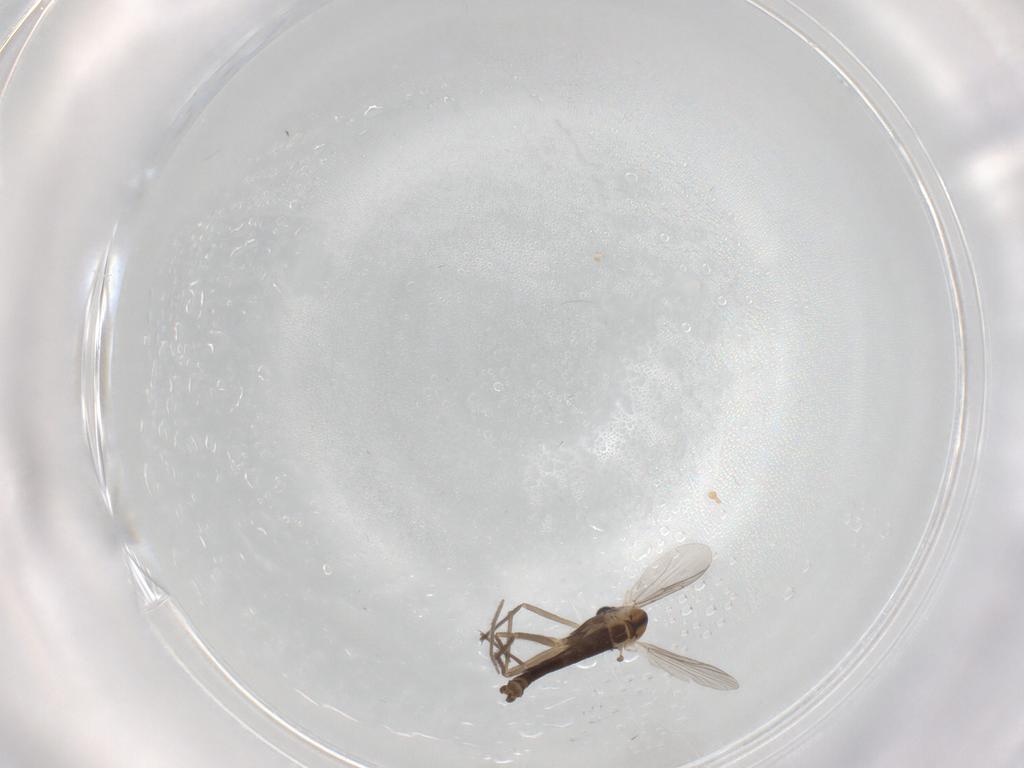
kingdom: Animalia
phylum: Arthropoda
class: Insecta
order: Diptera
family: Chironomidae
